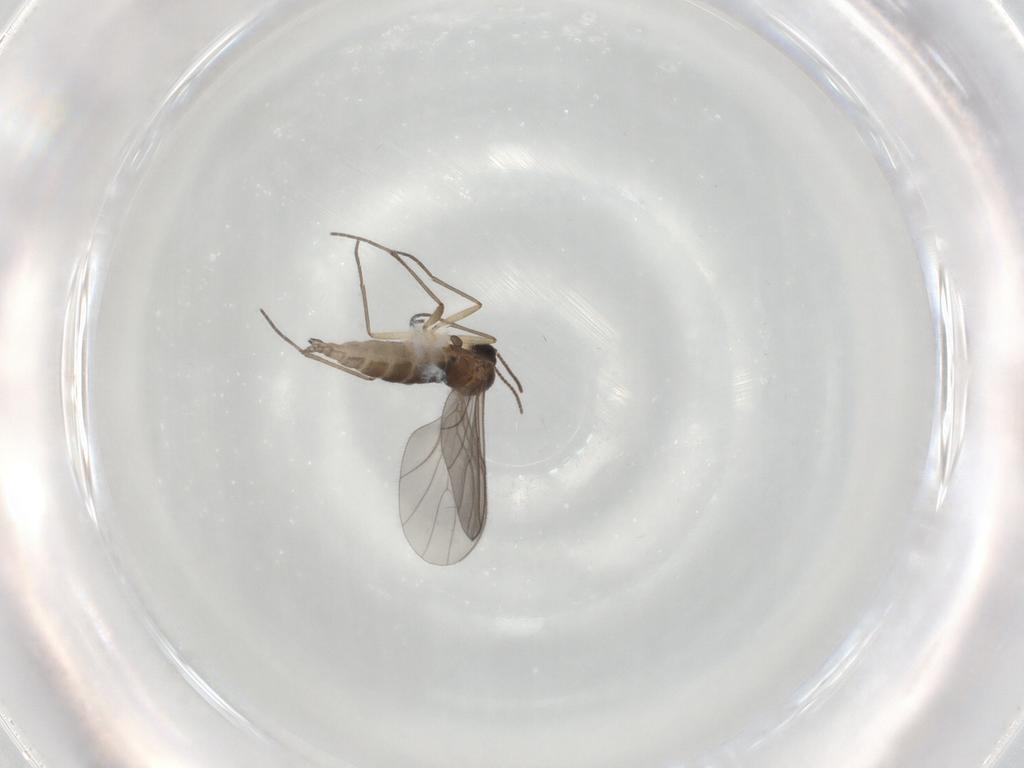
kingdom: Animalia
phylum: Arthropoda
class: Insecta
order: Diptera
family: Sciaridae
